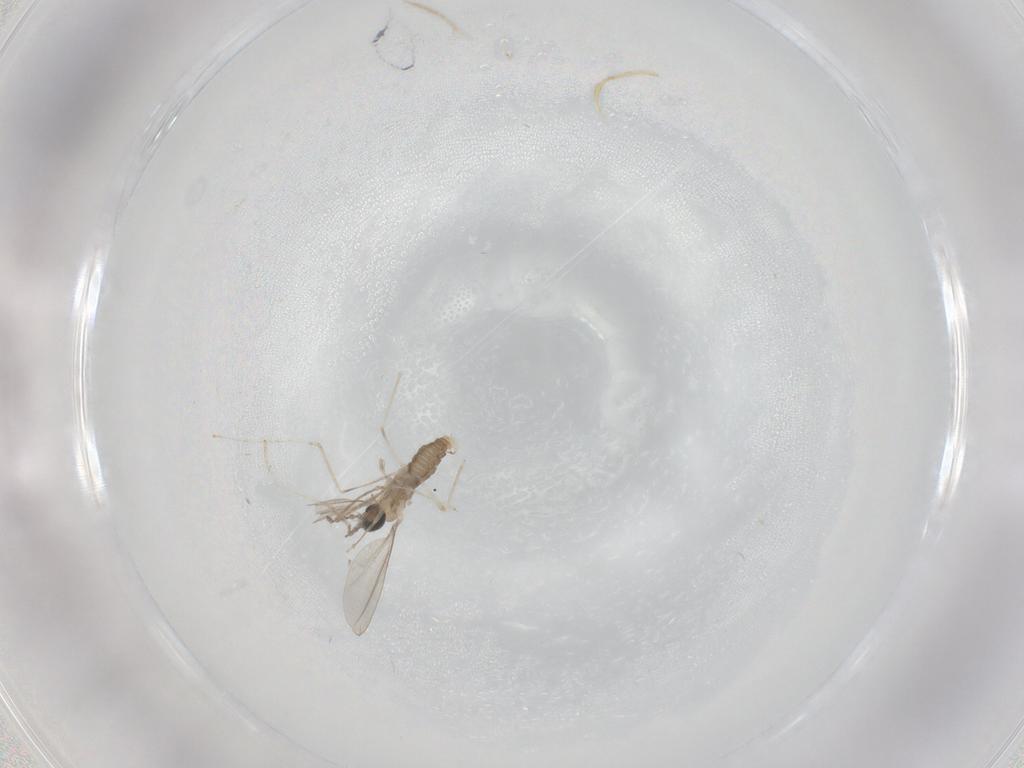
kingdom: Animalia
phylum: Arthropoda
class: Insecta
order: Diptera
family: Cecidomyiidae
